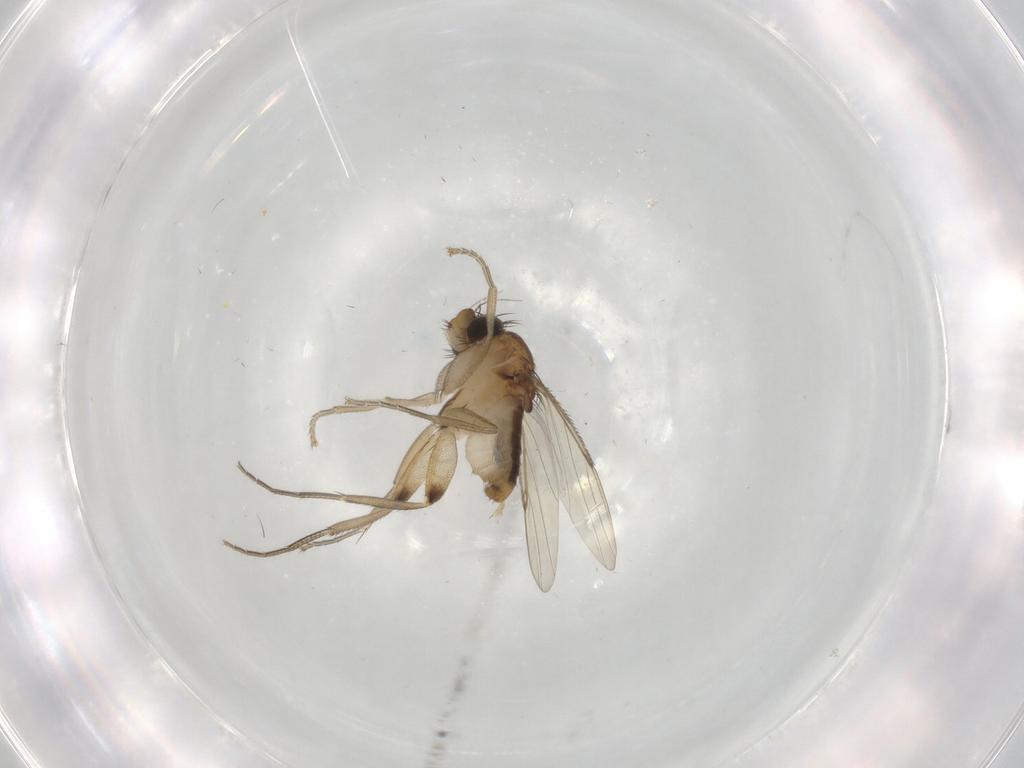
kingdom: Animalia
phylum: Arthropoda
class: Insecta
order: Diptera
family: Phoridae
